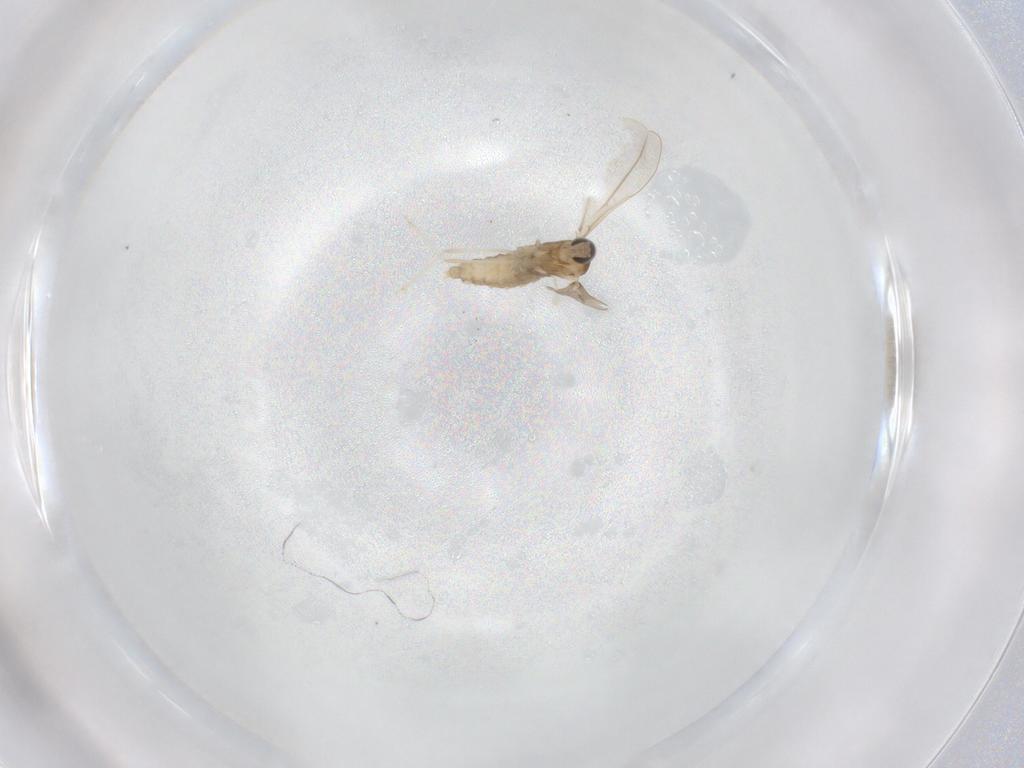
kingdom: Animalia
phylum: Arthropoda
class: Insecta
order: Diptera
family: Cecidomyiidae
